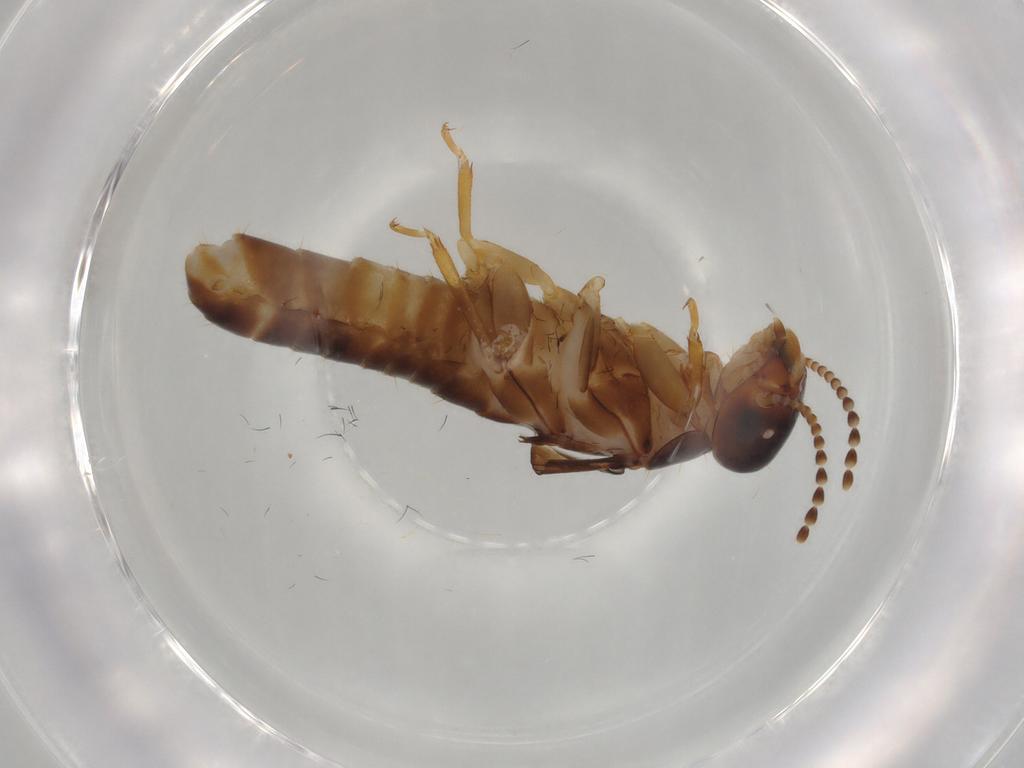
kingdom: Animalia
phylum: Arthropoda
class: Insecta
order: Blattodea
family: Kalotermitidae
